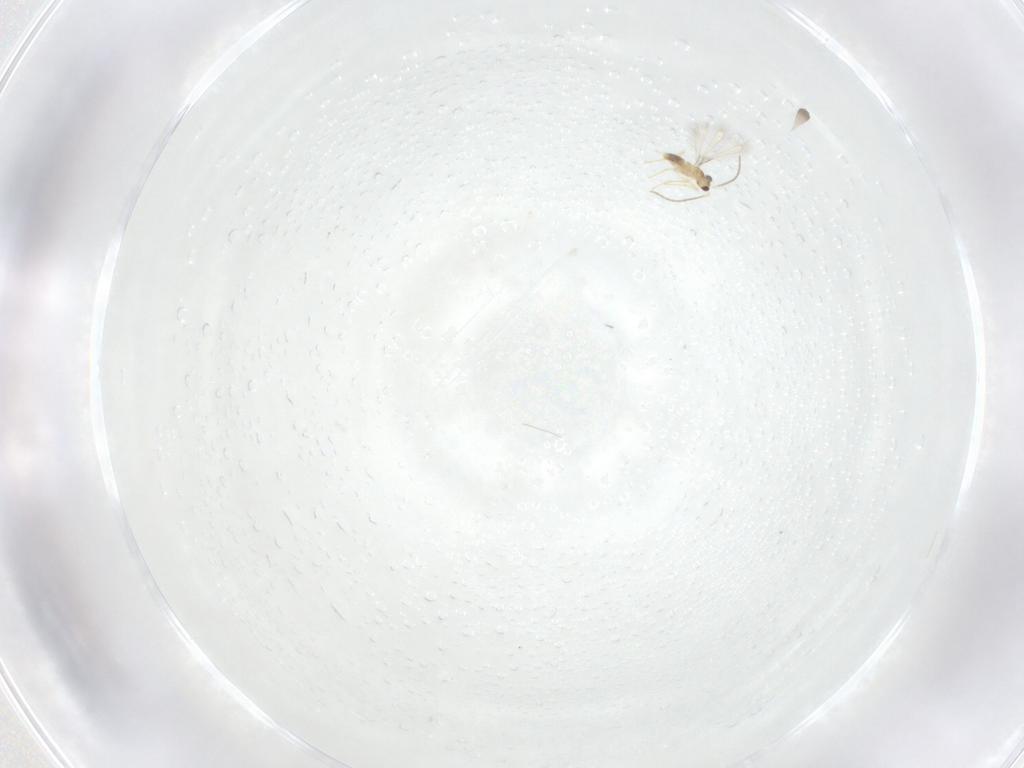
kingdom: Animalia
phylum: Arthropoda
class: Insecta
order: Hymenoptera
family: Mymaridae
